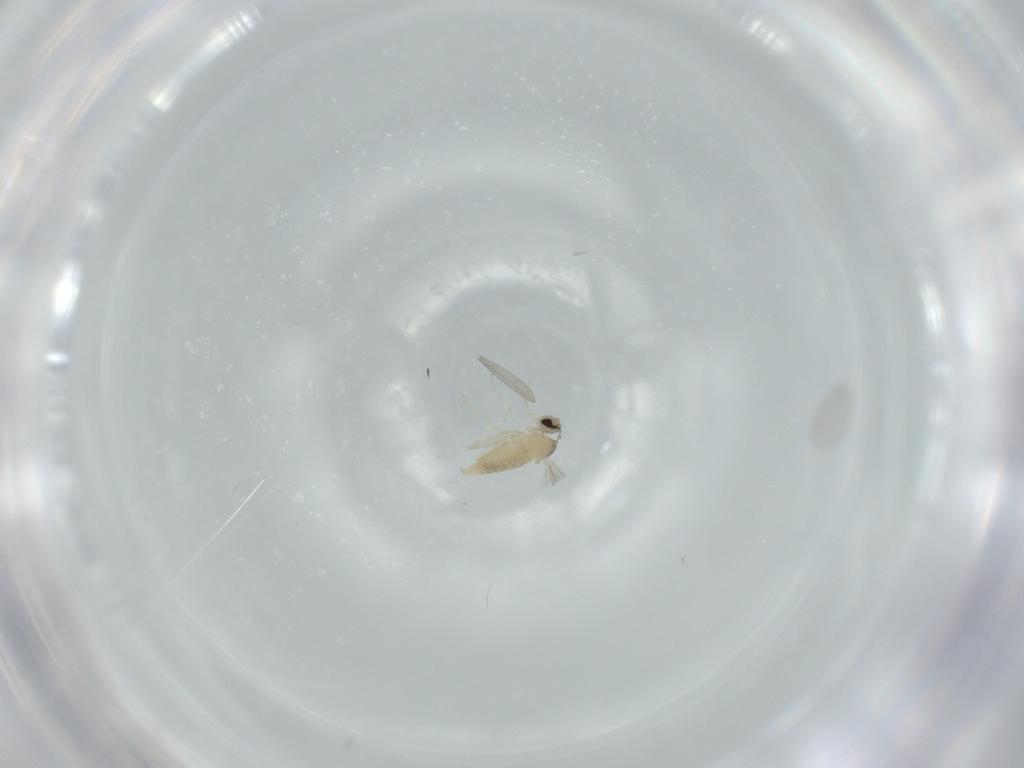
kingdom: Animalia
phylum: Arthropoda
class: Insecta
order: Diptera
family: Cecidomyiidae
